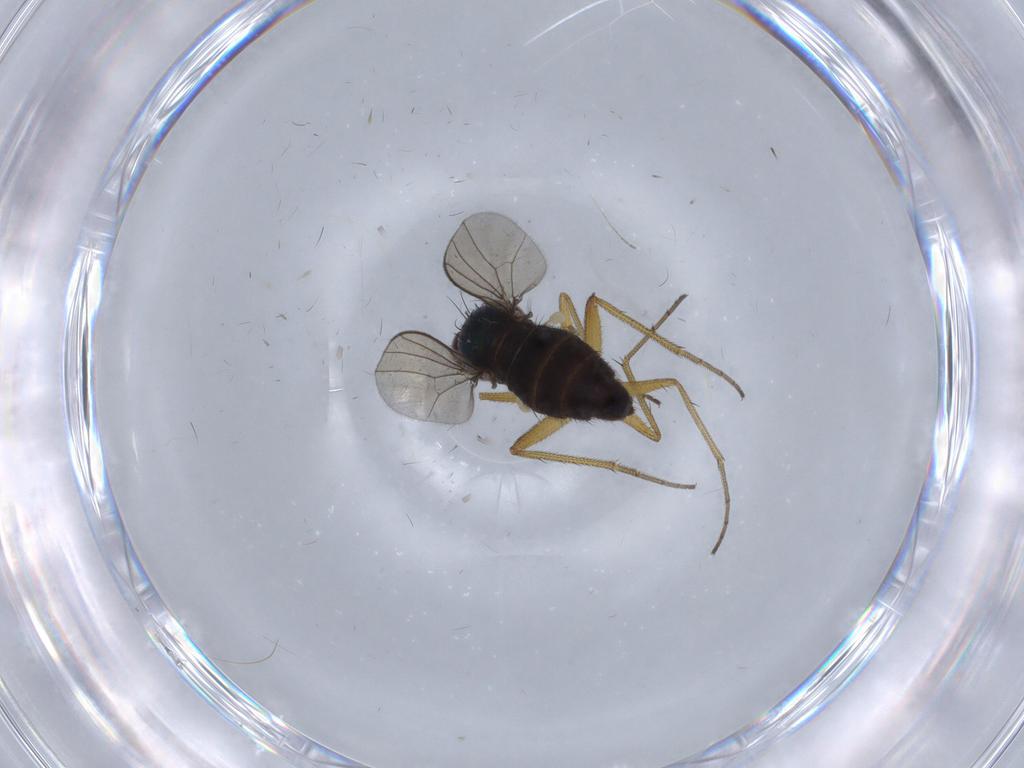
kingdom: Animalia
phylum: Arthropoda
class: Insecta
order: Diptera
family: Dolichopodidae
